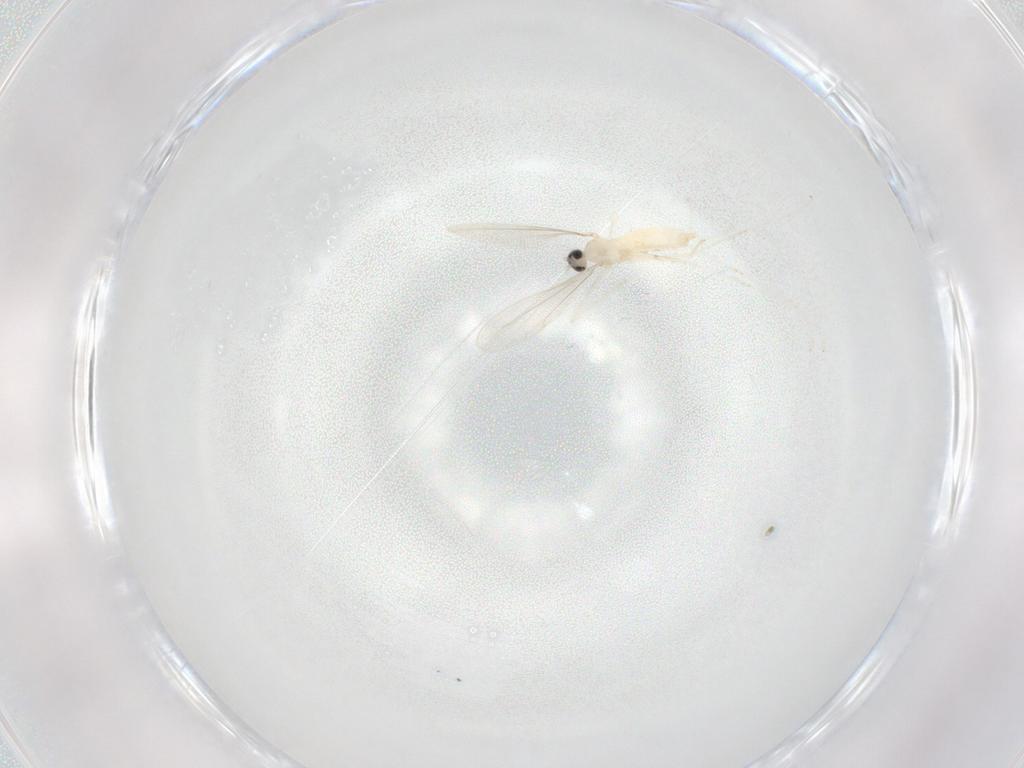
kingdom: Animalia
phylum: Arthropoda
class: Insecta
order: Diptera
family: Cecidomyiidae
